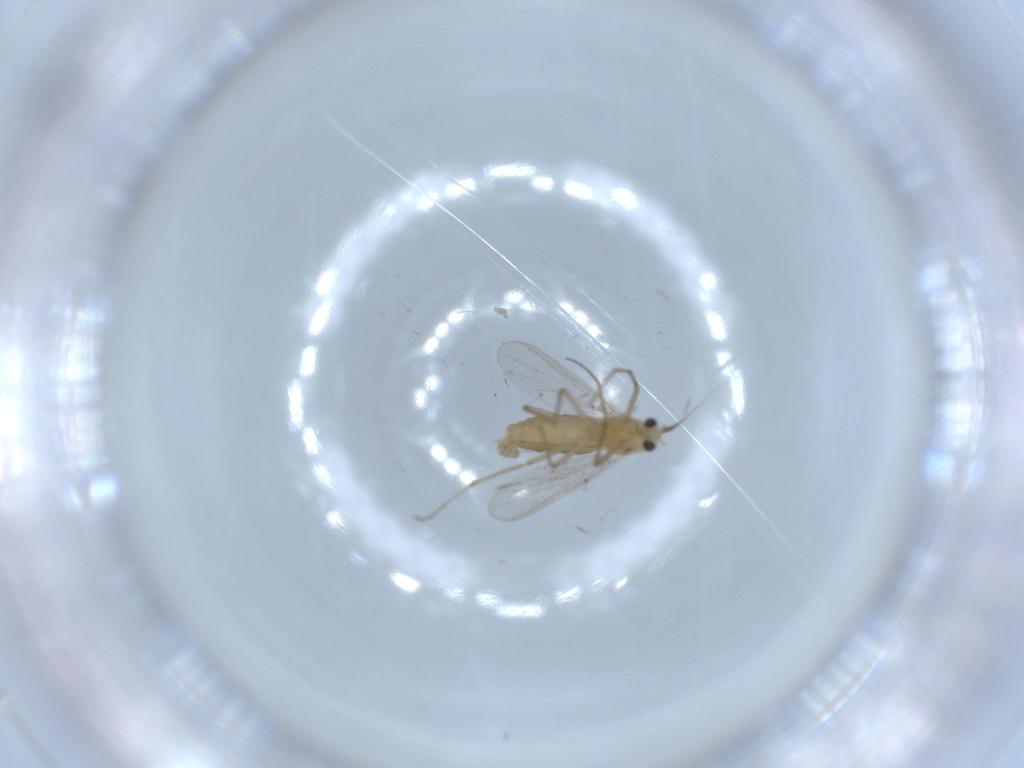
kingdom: Animalia
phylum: Arthropoda
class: Insecta
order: Diptera
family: Chironomidae
